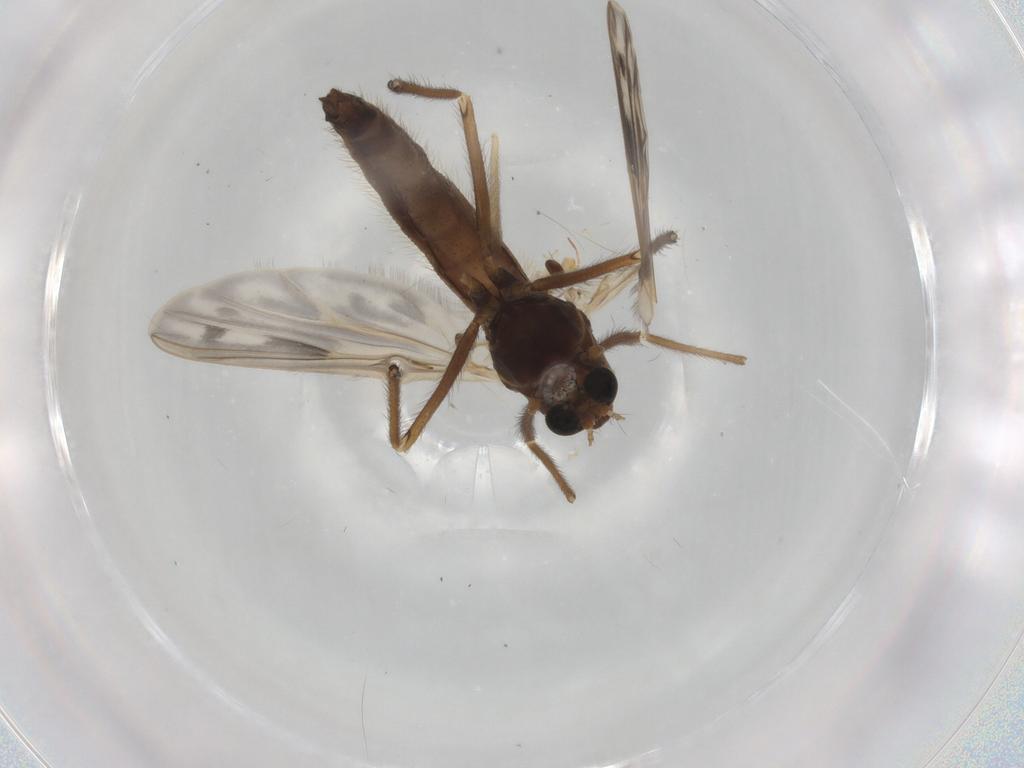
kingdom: Animalia
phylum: Arthropoda
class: Insecta
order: Diptera
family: Chironomidae
